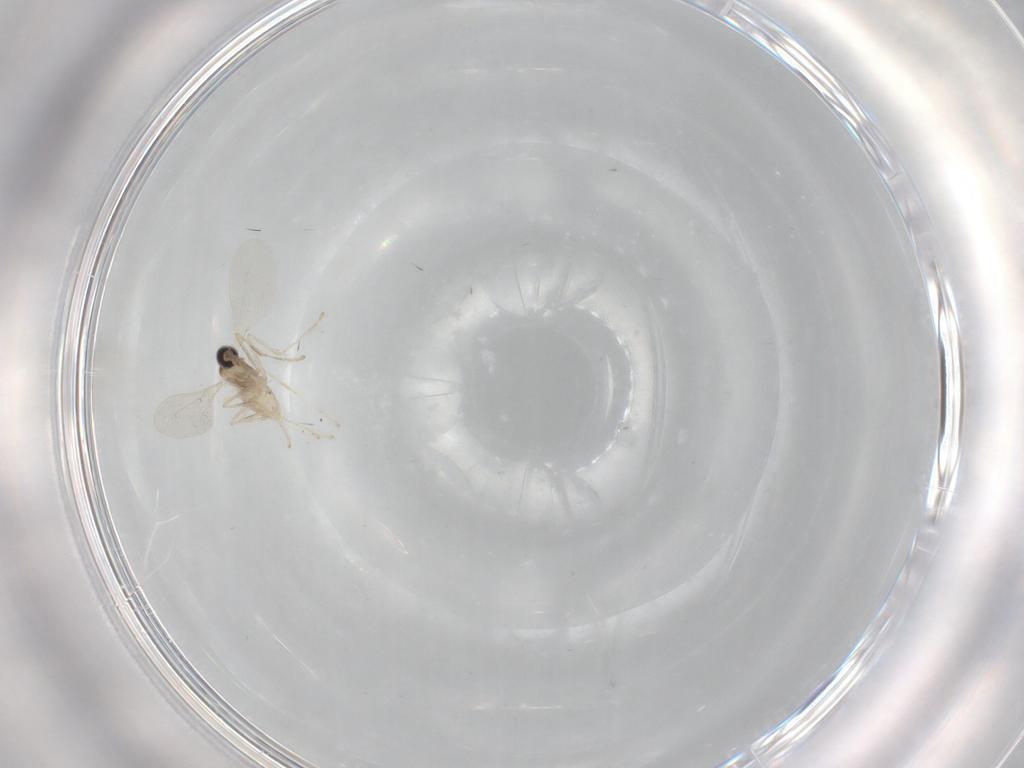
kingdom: Animalia
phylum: Arthropoda
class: Insecta
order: Diptera
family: Cecidomyiidae
